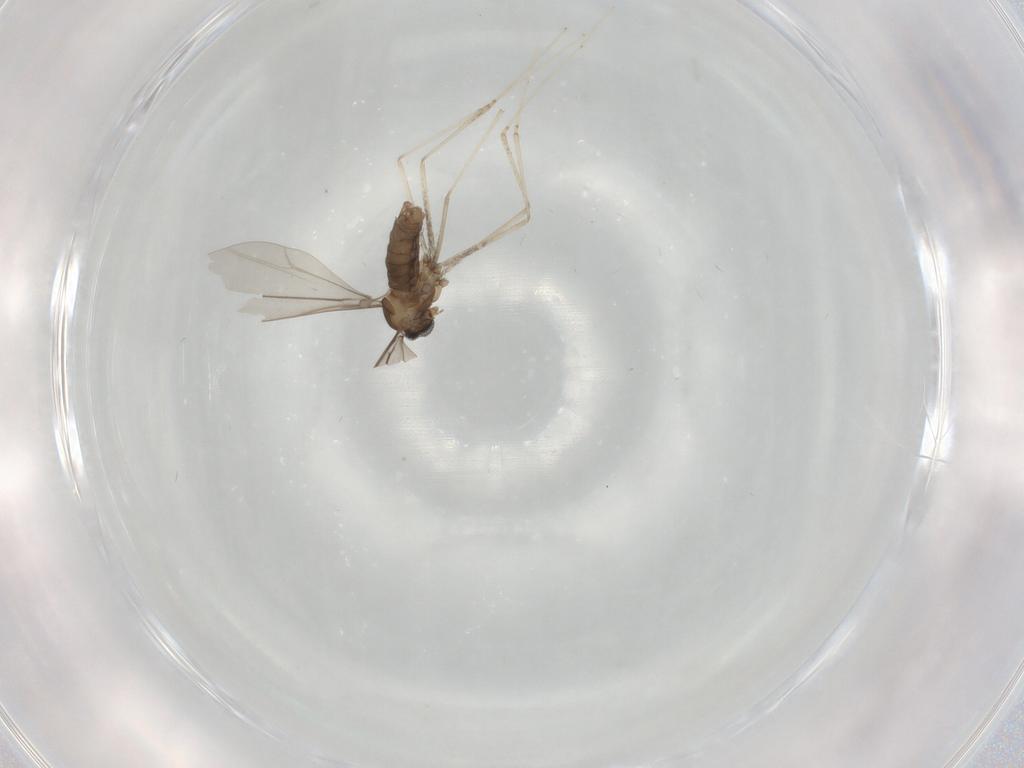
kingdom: Animalia
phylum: Arthropoda
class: Insecta
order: Diptera
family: Cecidomyiidae
